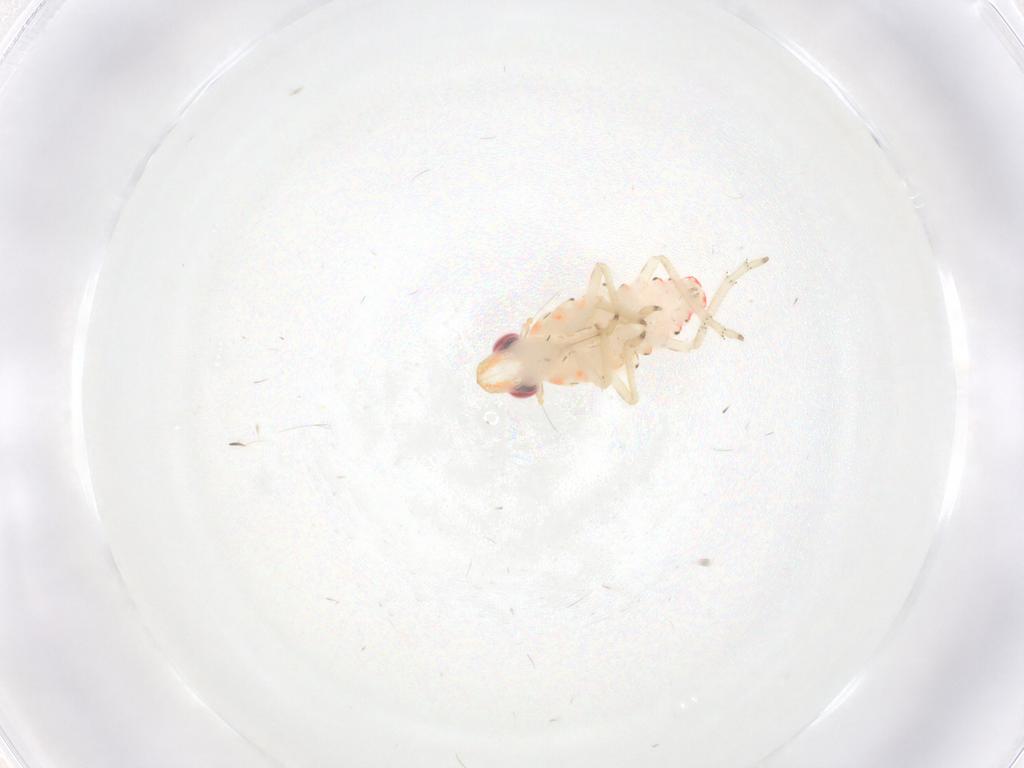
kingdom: Animalia
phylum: Arthropoda
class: Insecta
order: Hemiptera
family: Tropiduchidae
